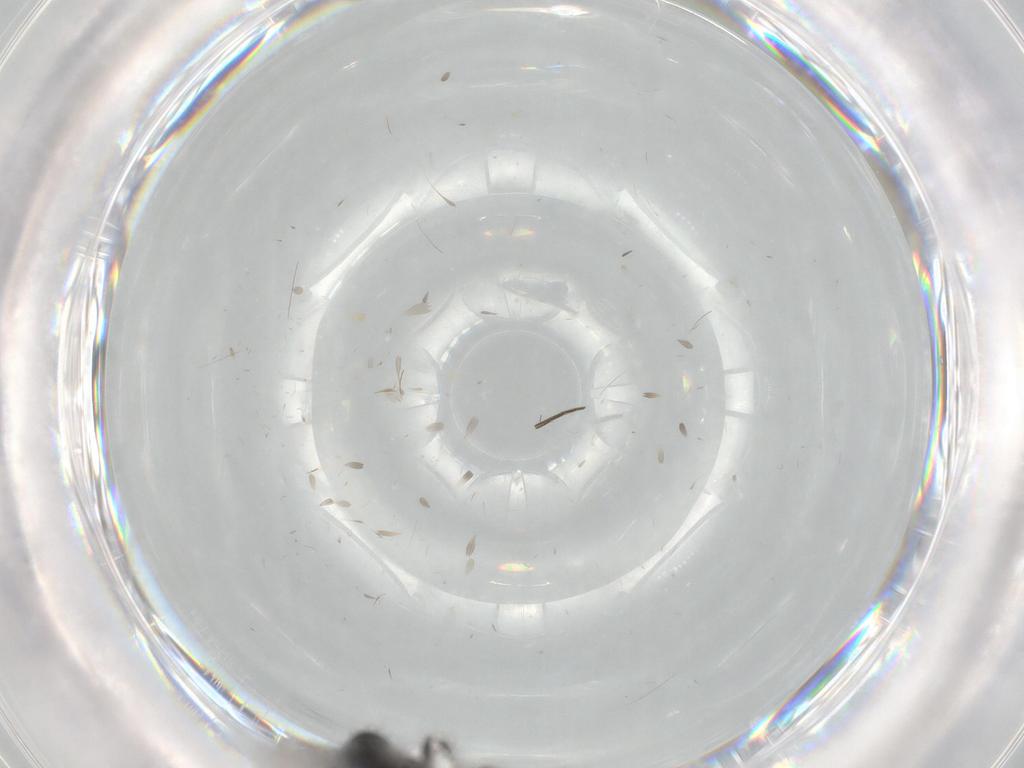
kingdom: Animalia
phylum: Arthropoda
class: Insecta
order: Diptera
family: Dolichopodidae
